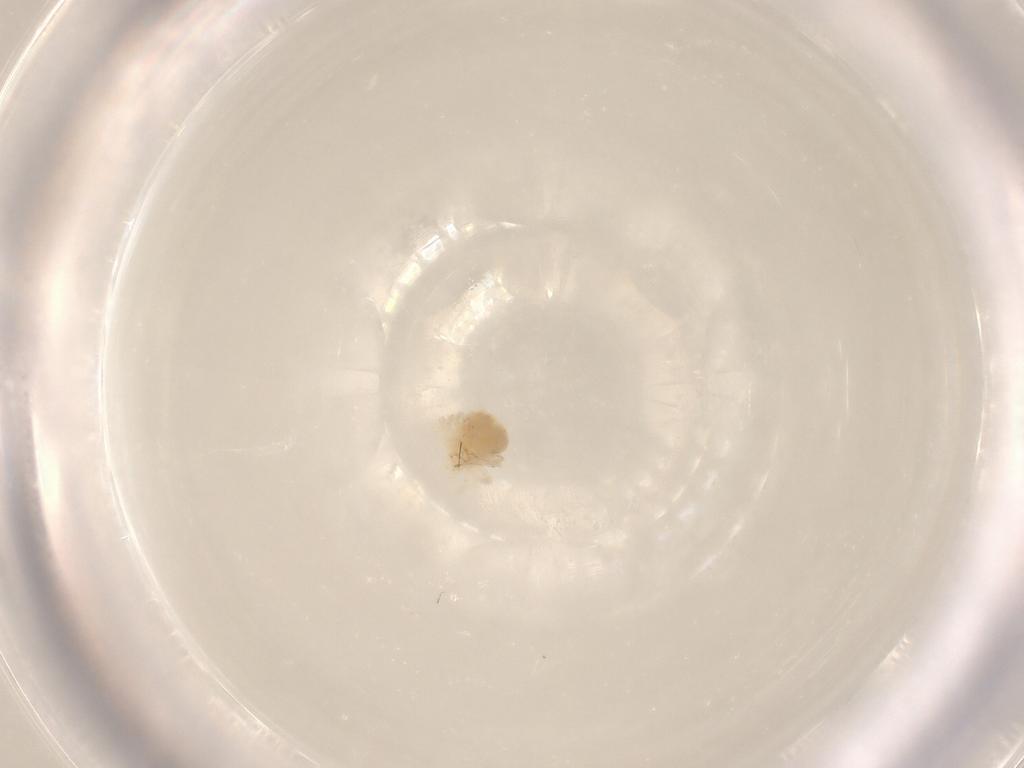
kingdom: Animalia
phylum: Arthropoda
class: Arachnida
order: Trombidiformes
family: Anystidae
